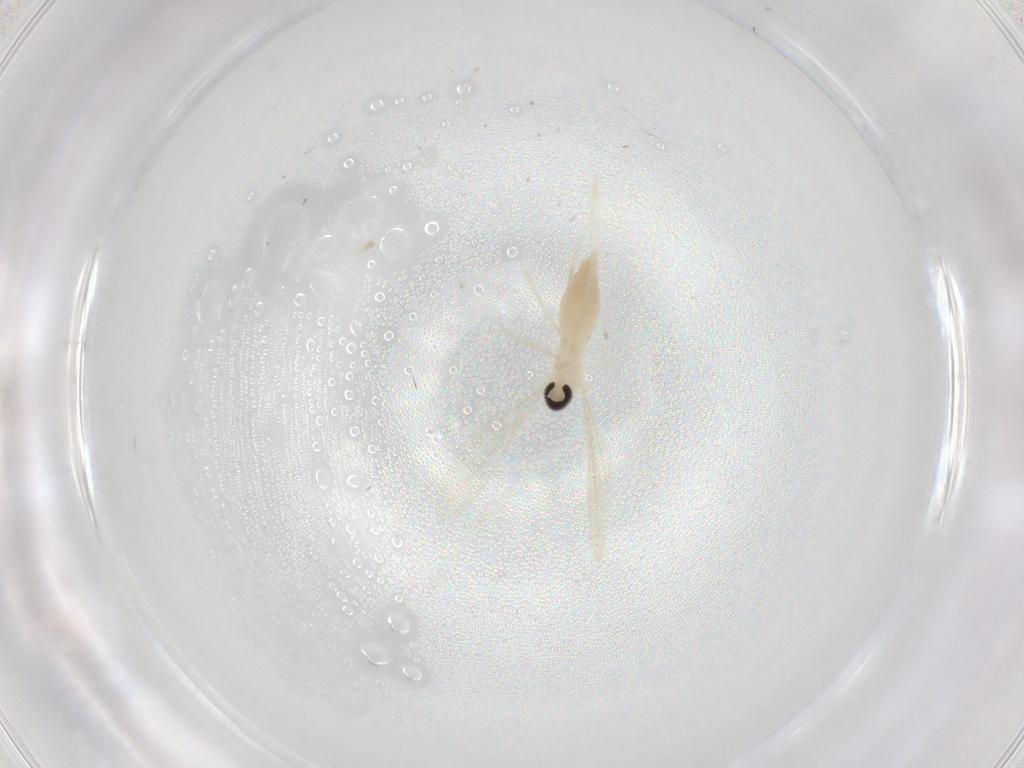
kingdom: Animalia
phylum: Arthropoda
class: Insecta
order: Diptera
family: Cecidomyiidae
